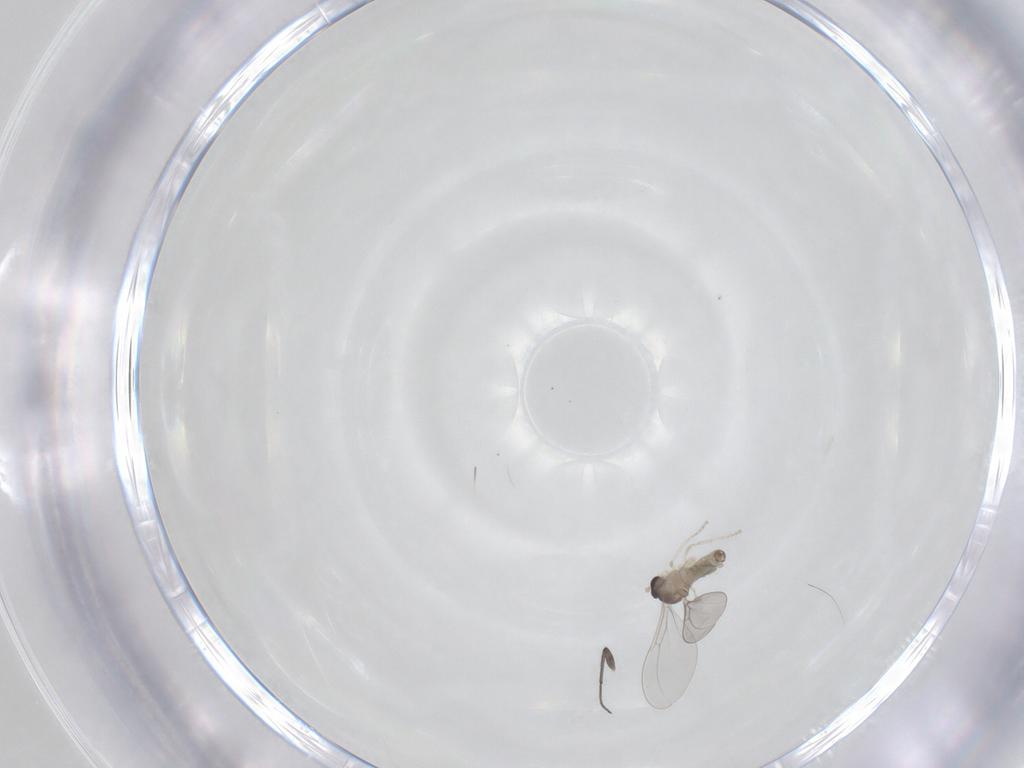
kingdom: Animalia
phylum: Arthropoda
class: Insecta
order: Diptera
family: Cecidomyiidae
